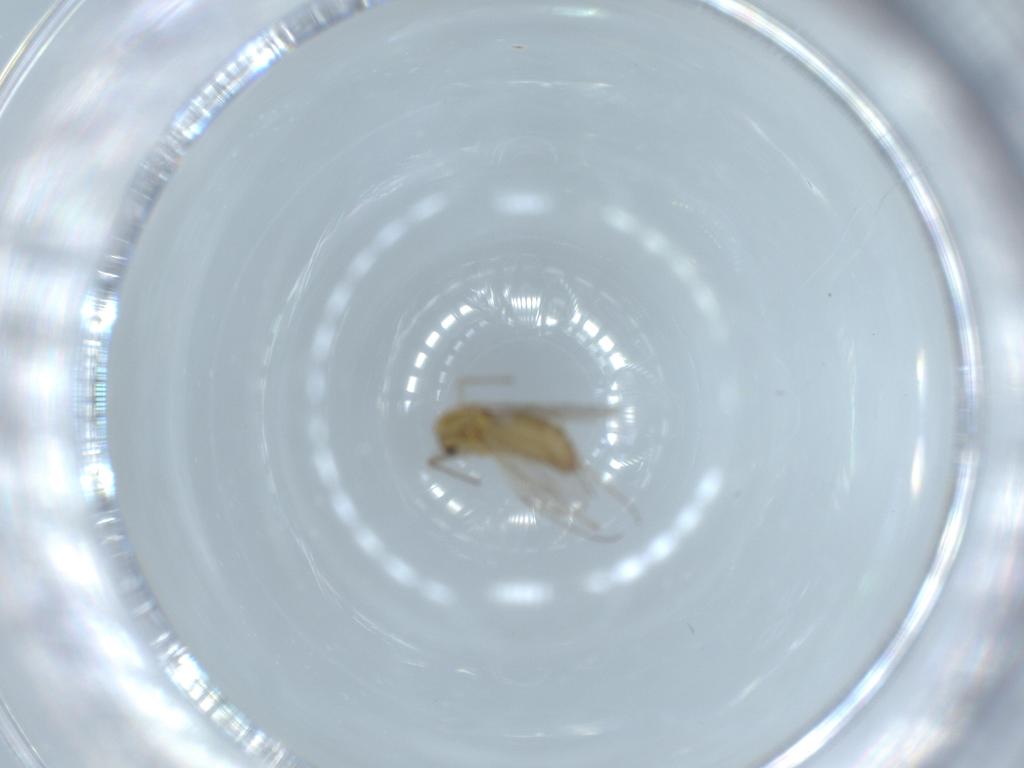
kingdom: Animalia
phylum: Arthropoda
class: Insecta
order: Diptera
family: Chironomidae
